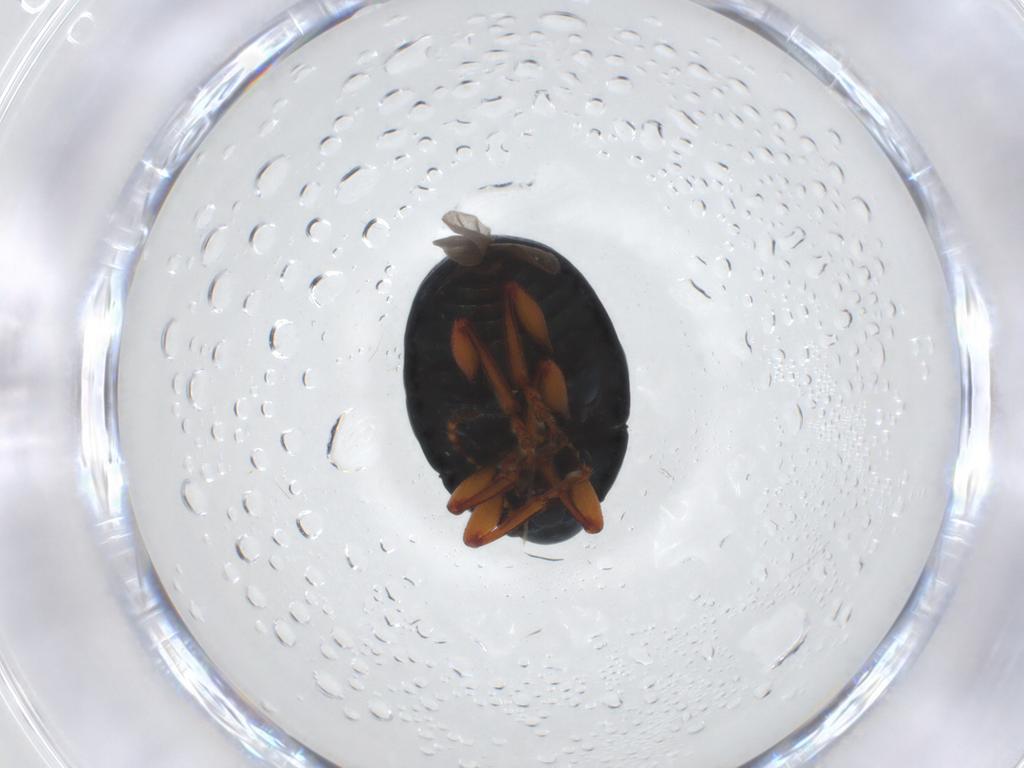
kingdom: Animalia
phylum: Arthropoda
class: Insecta
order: Coleoptera
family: Chrysomelidae
